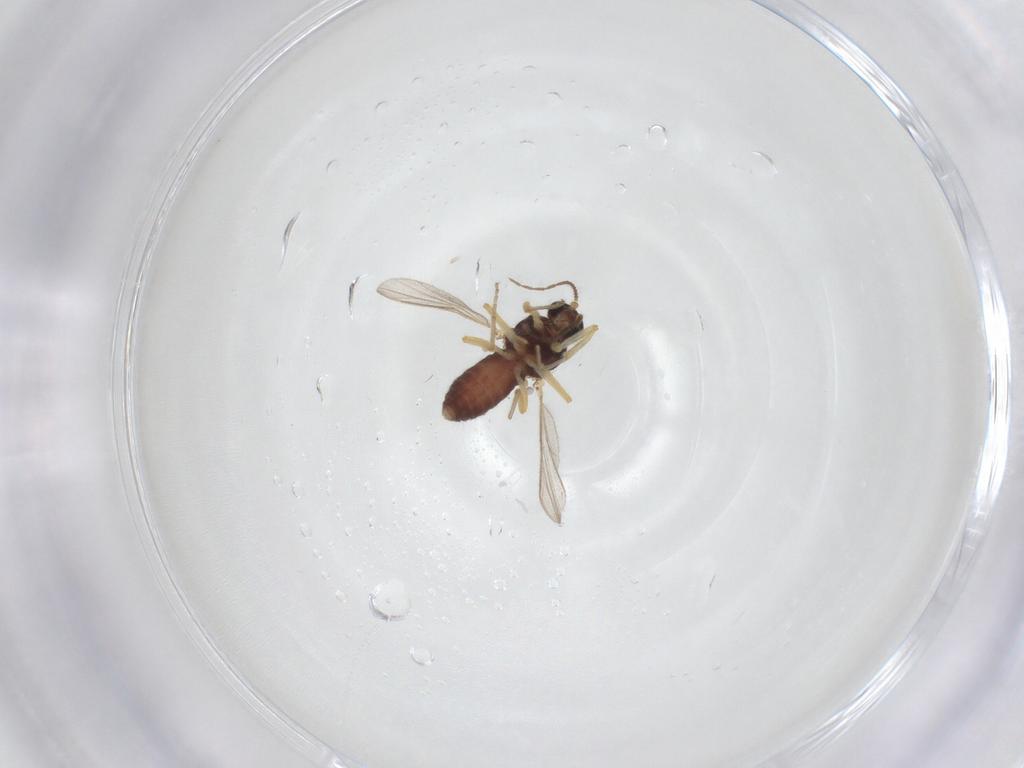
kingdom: Animalia
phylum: Arthropoda
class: Insecta
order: Diptera
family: Ceratopogonidae
